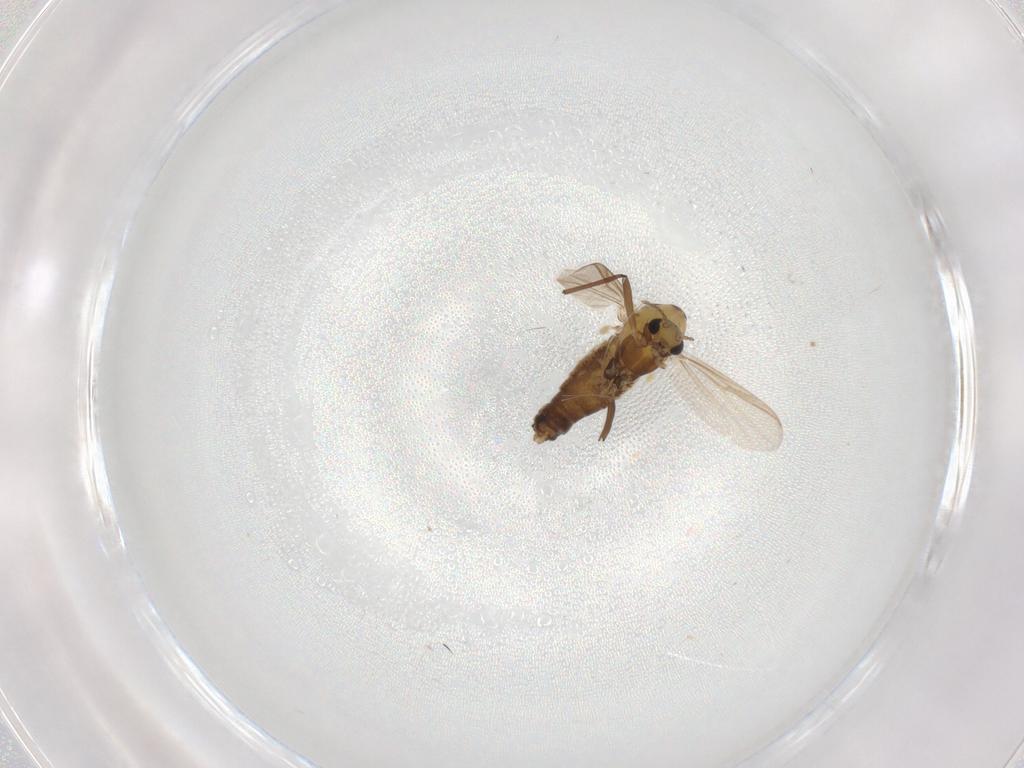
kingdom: Animalia
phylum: Arthropoda
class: Insecta
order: Diptera
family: Chironomidae
